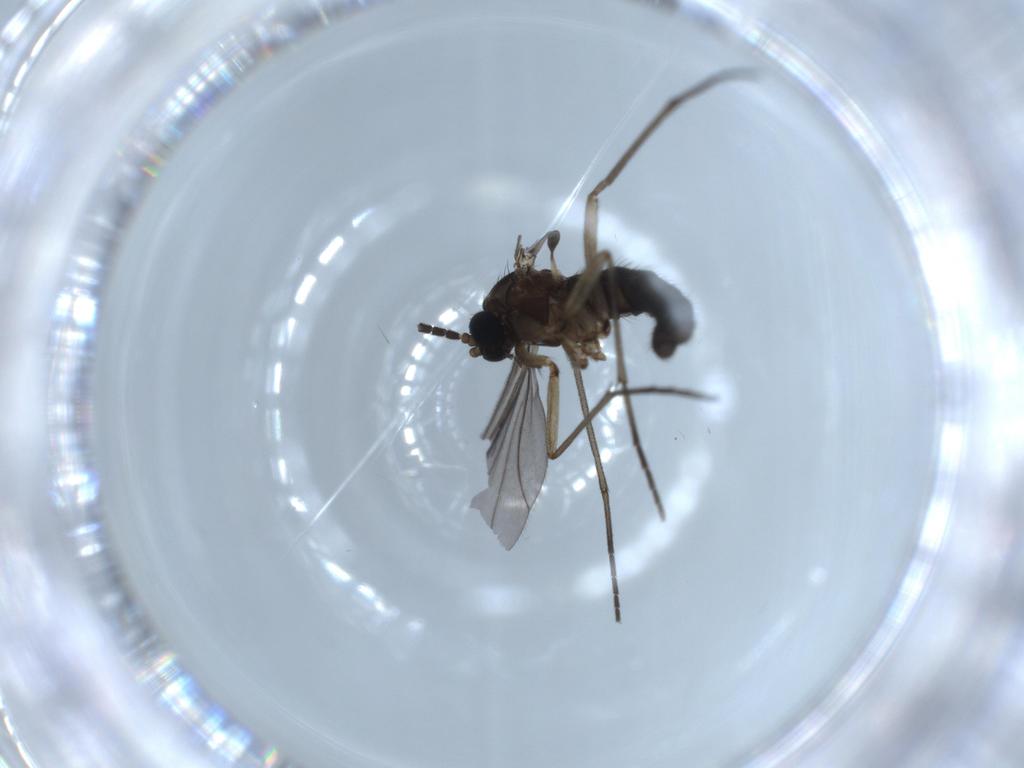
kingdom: Animalia
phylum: Arthropoda
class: Insecta
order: Diptera
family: Sciaridae
